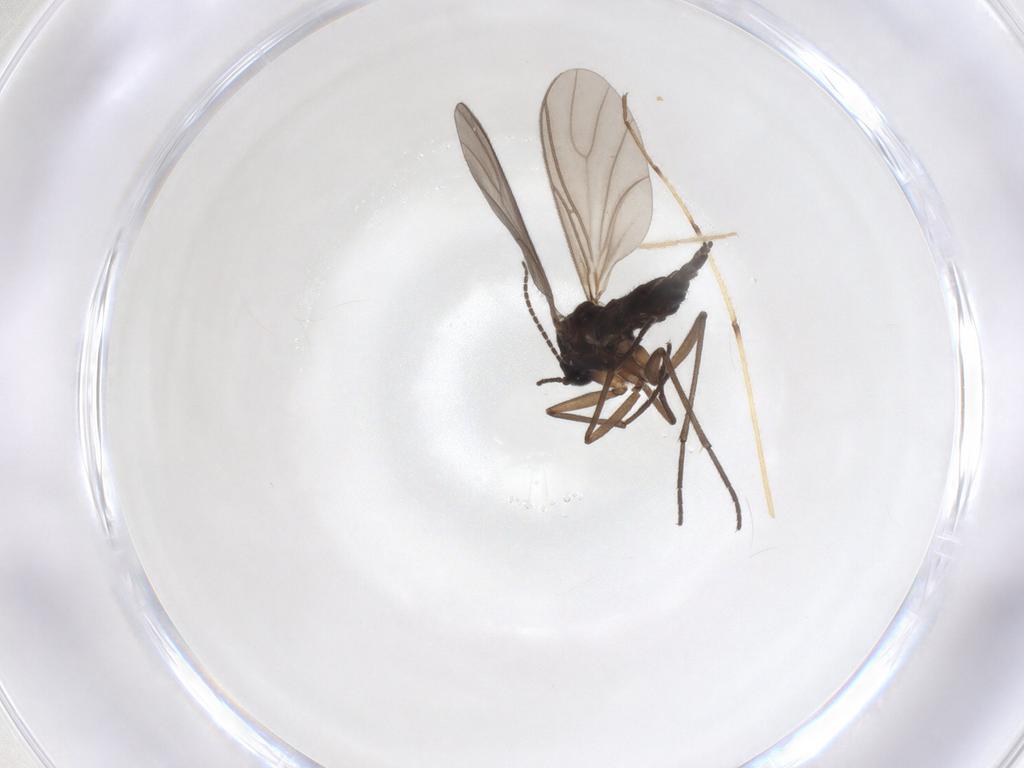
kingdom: Animalia
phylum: Arthropoda
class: Insecta
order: Diptera
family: Sciaridae
